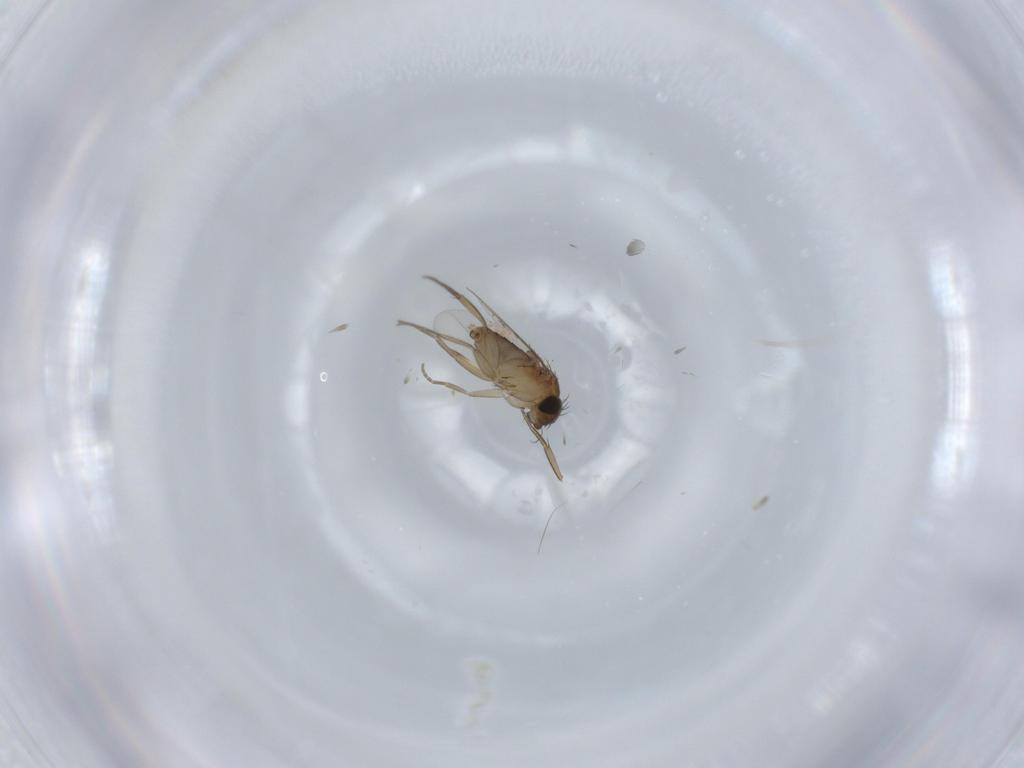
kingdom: Animalia
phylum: Arthropoda
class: Insecta
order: Diptera
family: Phoridae
